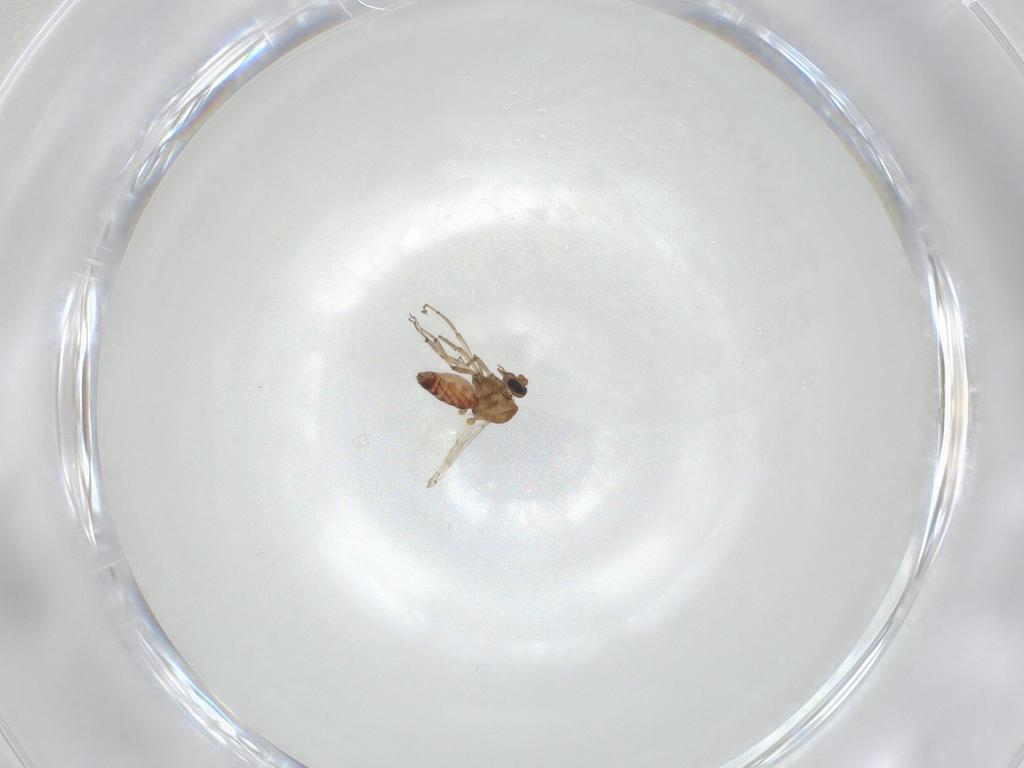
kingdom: Animalia
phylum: Arthropoda
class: Insecta
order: Diptera
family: Ceratopogonidae
